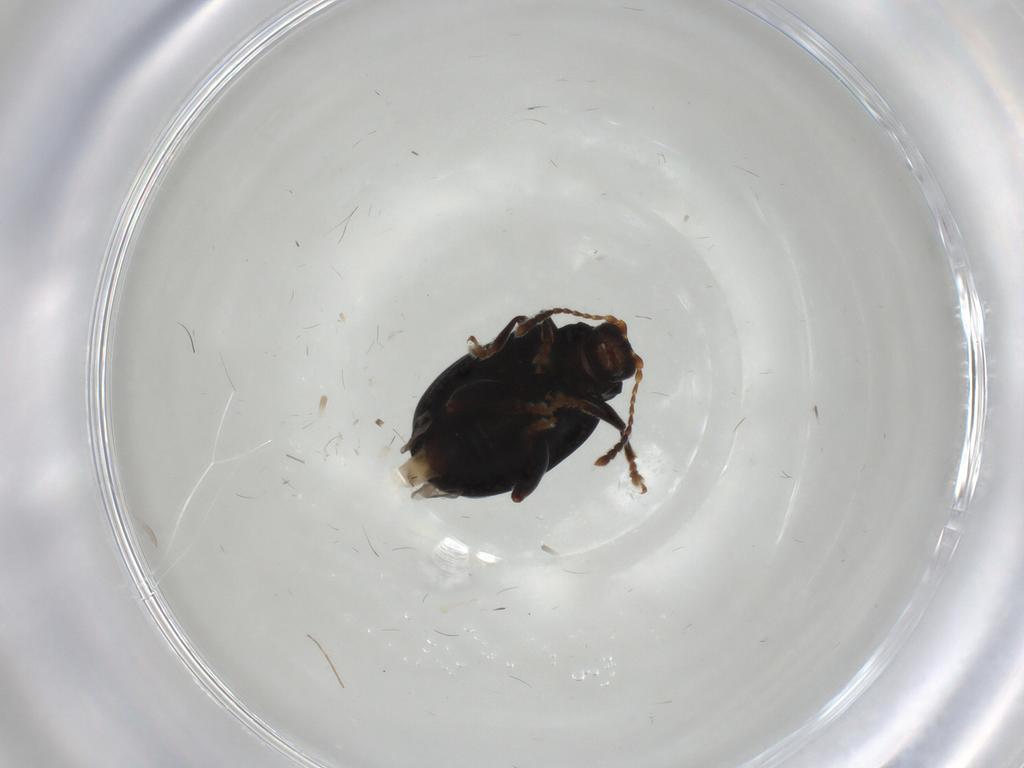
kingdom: Animalia
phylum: Arthropoda
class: Insecta
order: Coleoptera
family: Chrysomelidae
